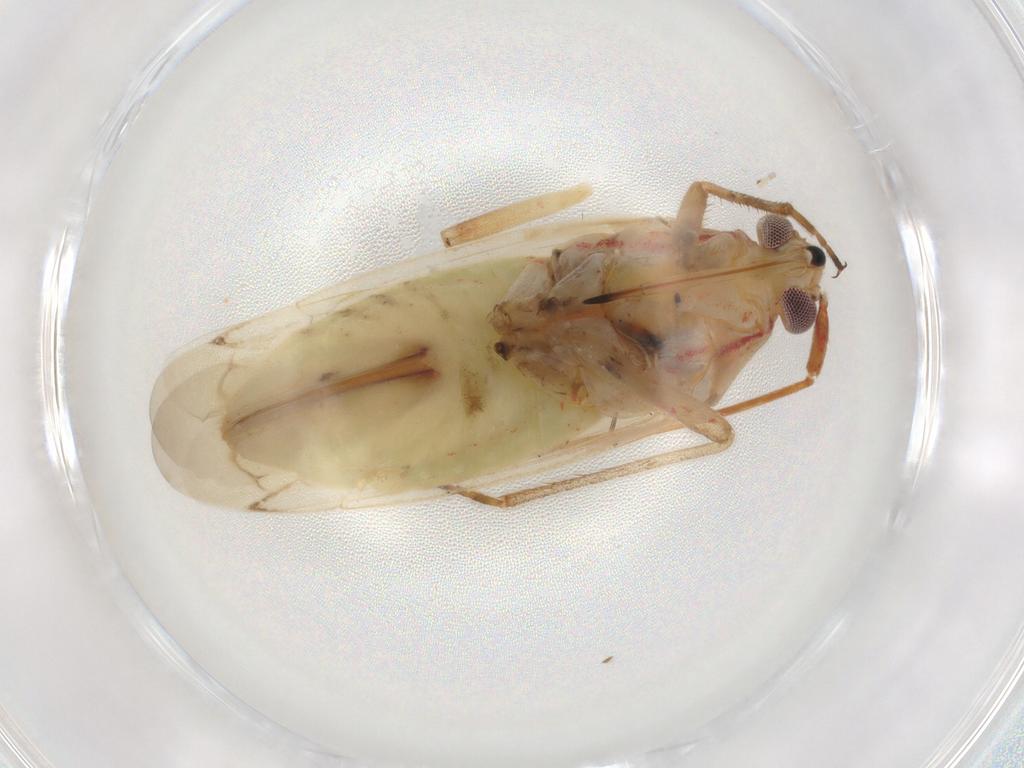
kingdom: Animalia
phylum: Arthropoda
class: Insecta
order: Hemiptera
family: Miridae
